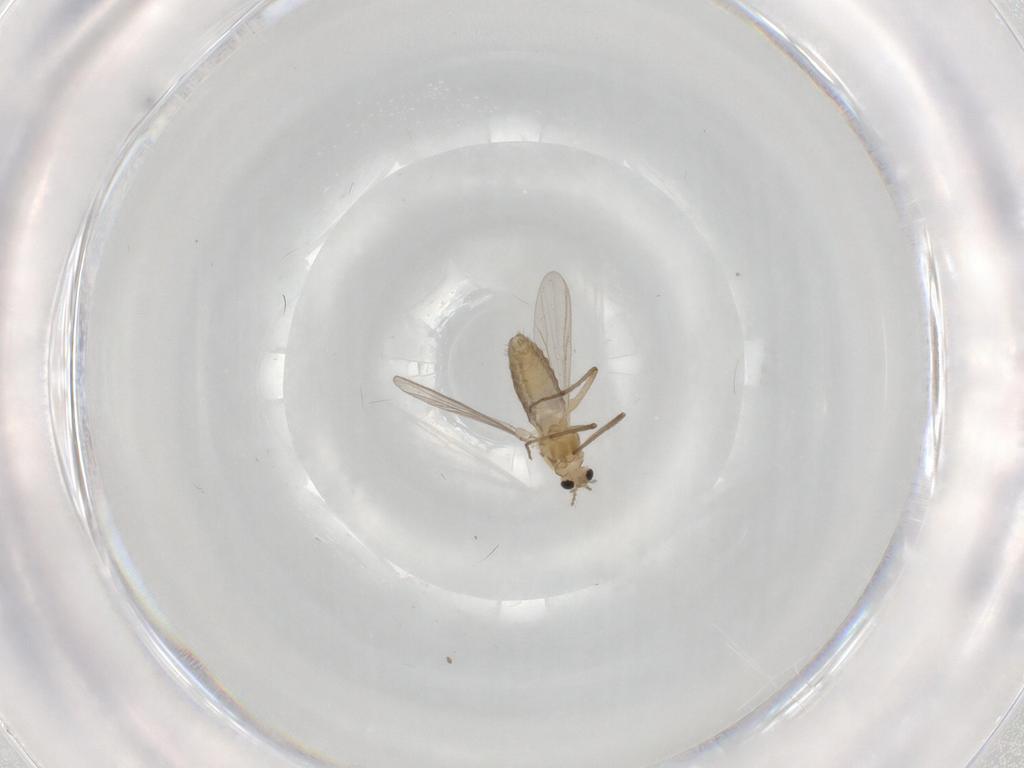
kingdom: Animalia
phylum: Arthropoda
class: Insecta
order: Diptera
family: Chironomidae
